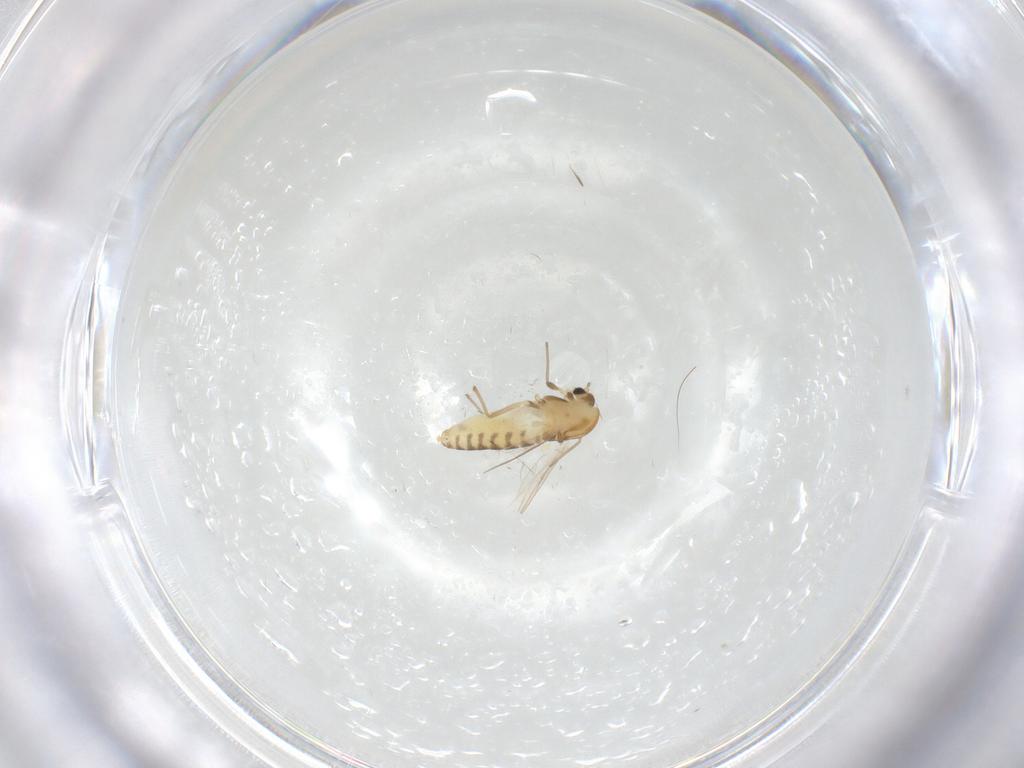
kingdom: Animalia
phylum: Arthropoda
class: Insecta
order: Diptera
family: Chironomidae
